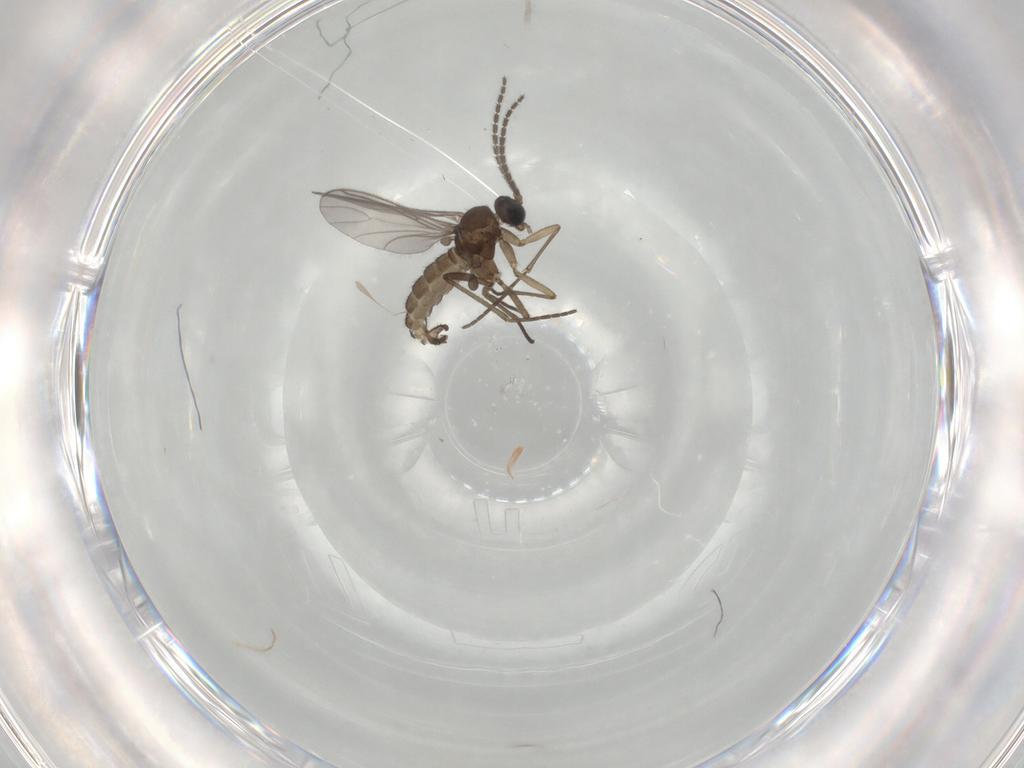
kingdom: Animalia
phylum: Arthropoda
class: Insecta
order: Diptera
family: Sciaridae
